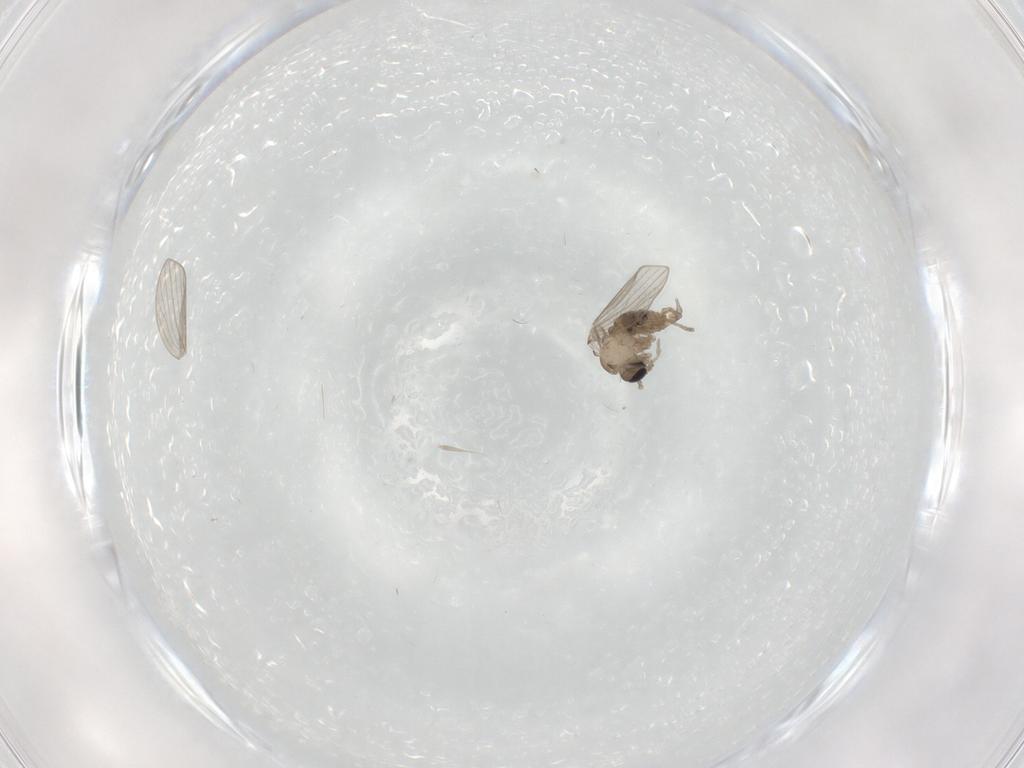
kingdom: Animalia
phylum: Arthropoda
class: Insecta
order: Diptera
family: Psychodidae
